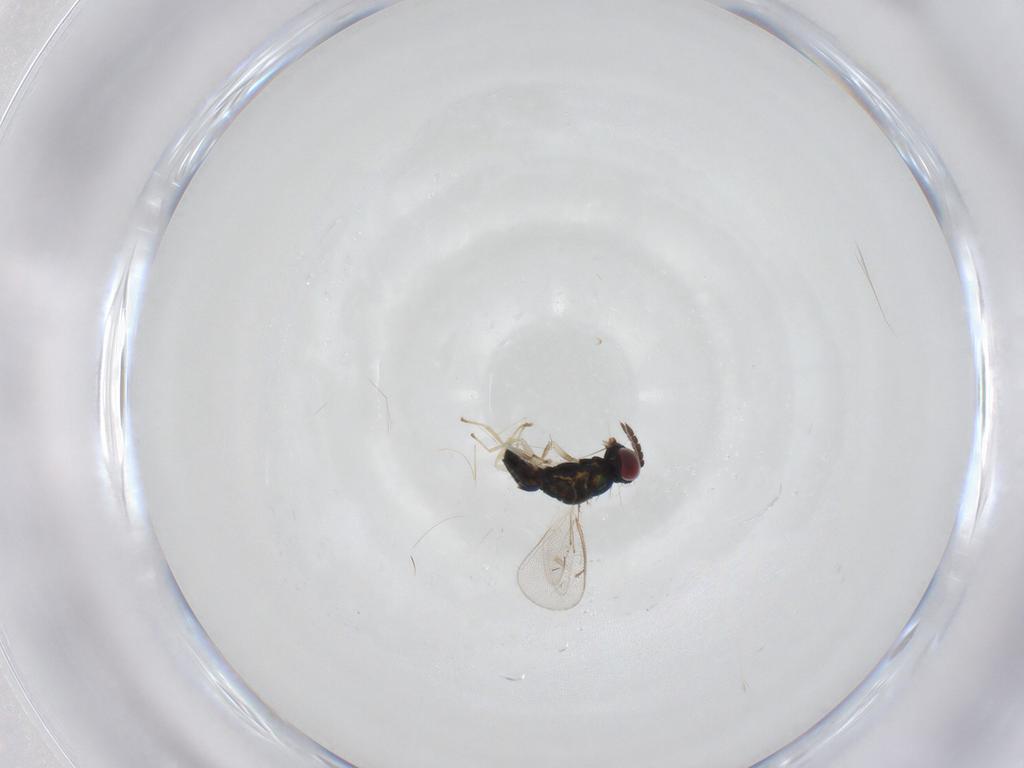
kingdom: Animalia
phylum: Arthropoda
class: Insecta
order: Hymenoptera
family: Eulophidae
